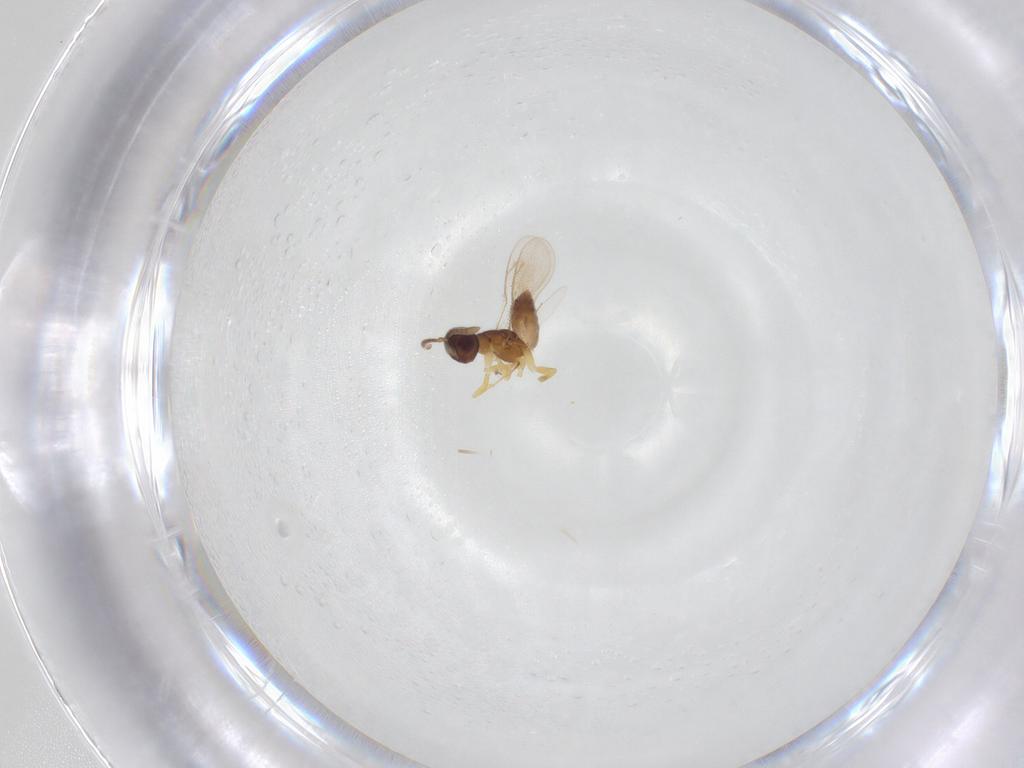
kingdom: Animalia
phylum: Arthropoda
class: Insecta
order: Hymenoptera
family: Eupelmidae
